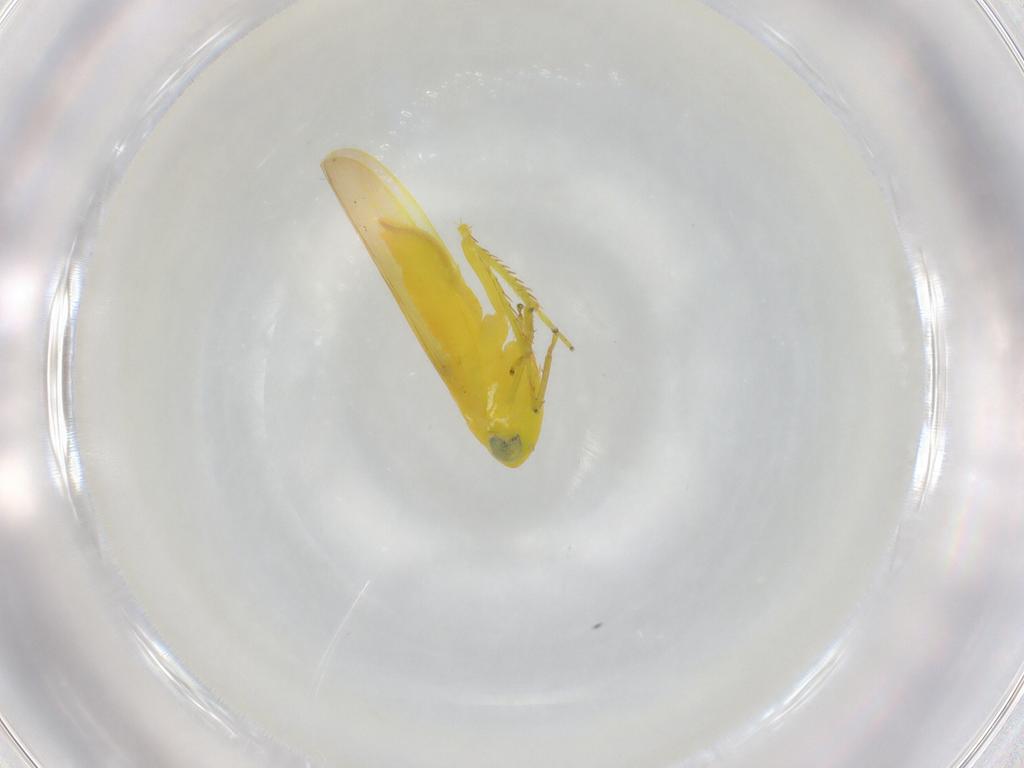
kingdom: Animalia
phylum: Arthropoda
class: Insecta
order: Hemiptera
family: Cicadellidae
